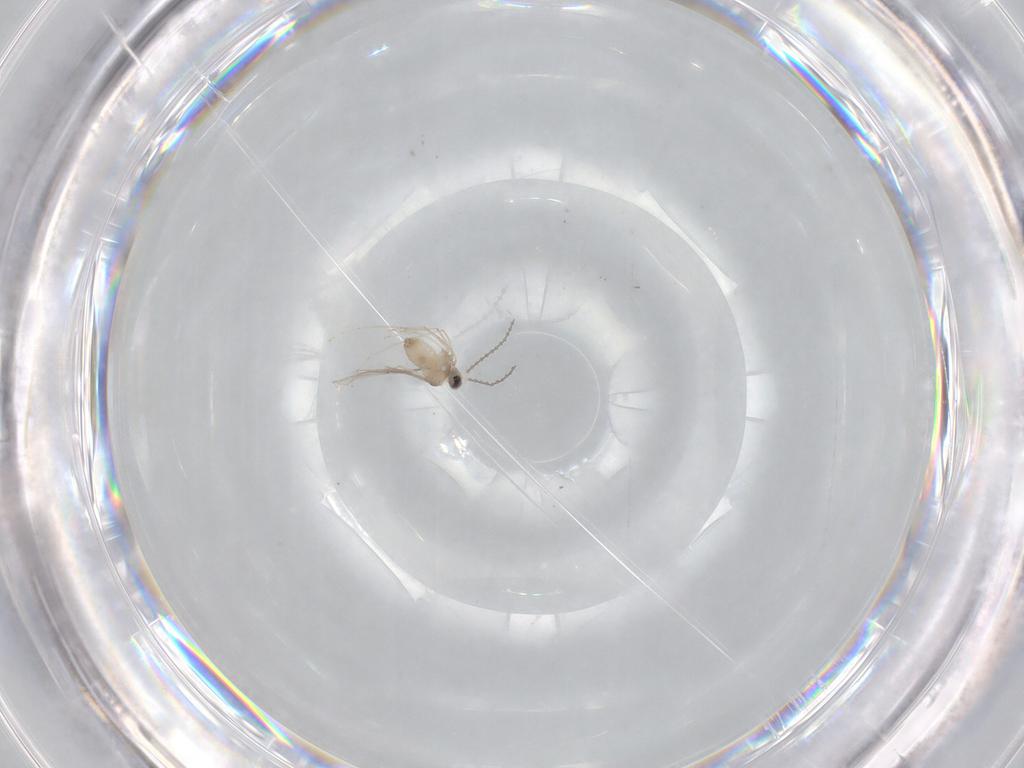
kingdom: Animalia
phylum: Arthropoda
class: Insecta
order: Diptera
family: Cecidomyiidae
